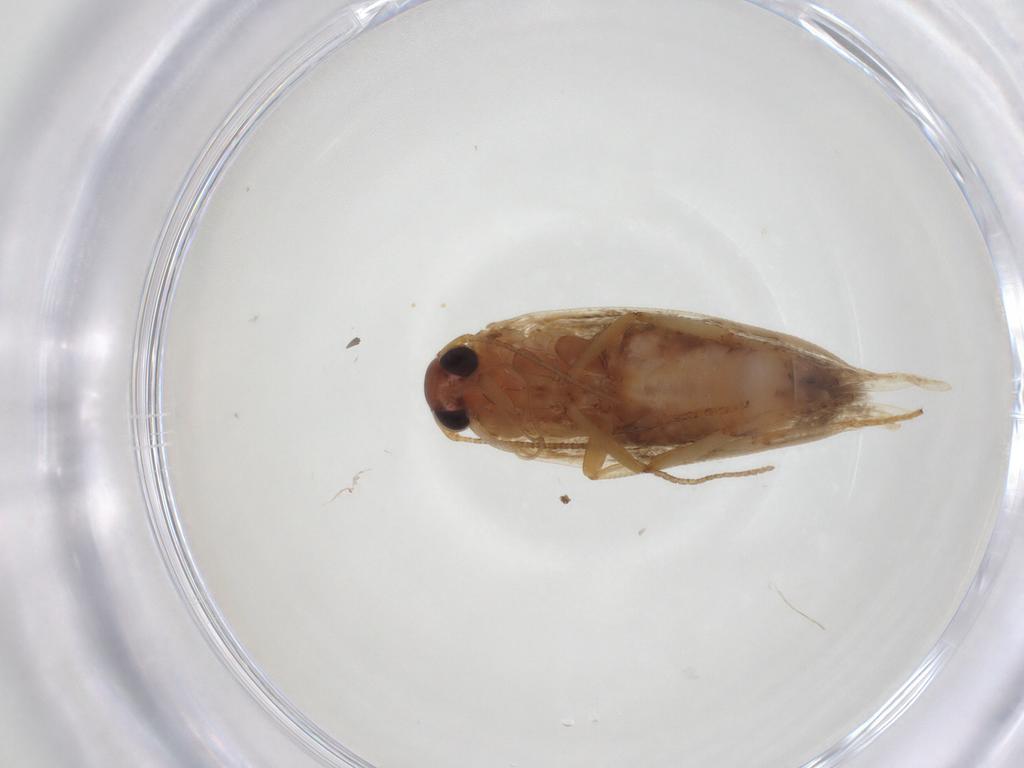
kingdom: Animalia
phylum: Arthropoda
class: Insecta
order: Lepidoptera
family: Blastobasidae
